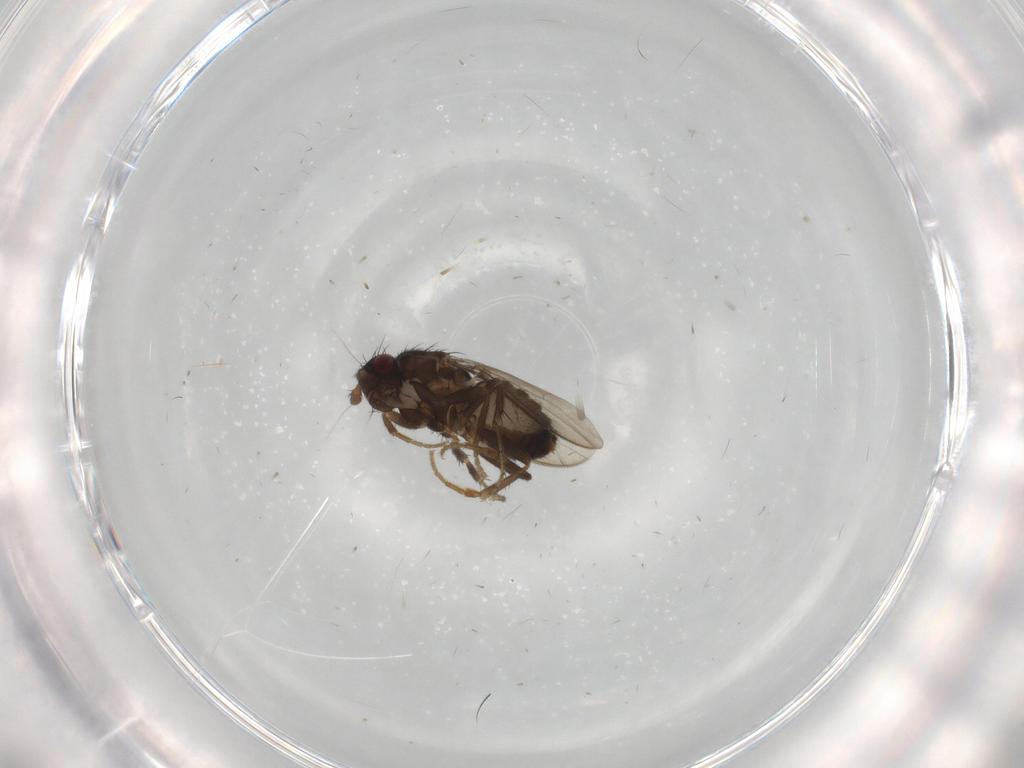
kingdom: Animalia
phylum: Arthropoda
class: Insecta
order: Diptera
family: Sphaeroceridae
